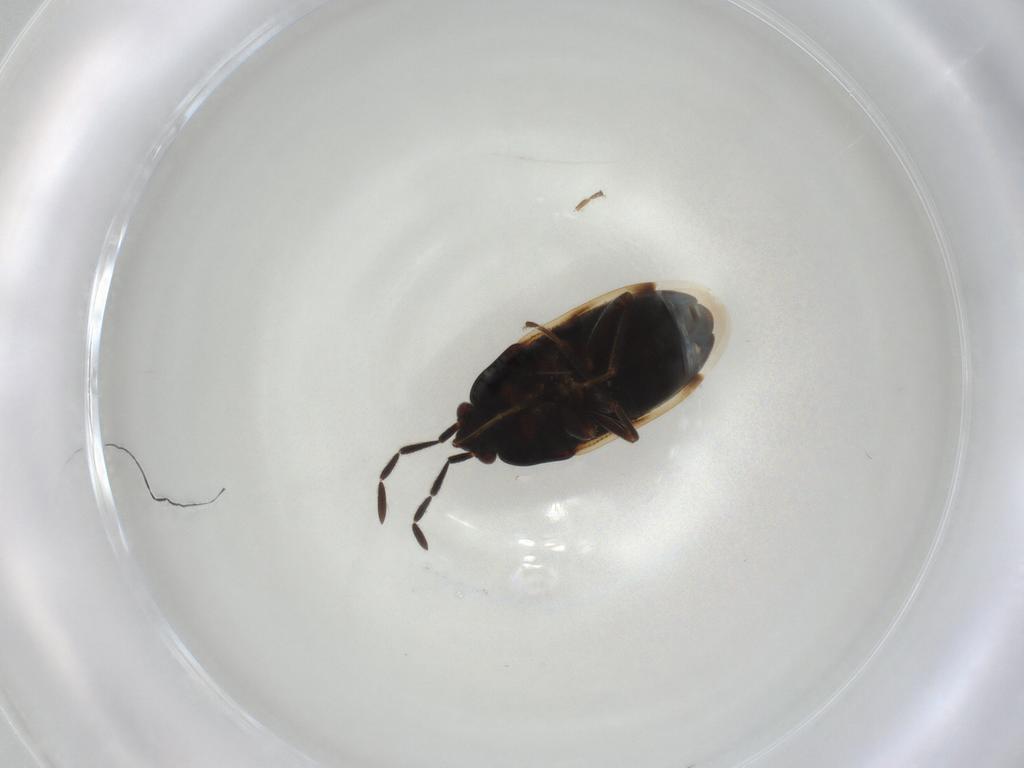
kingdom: Animalia
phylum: Arthropoda
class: Insecta
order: Hemiptera
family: Rhyparochromidae
